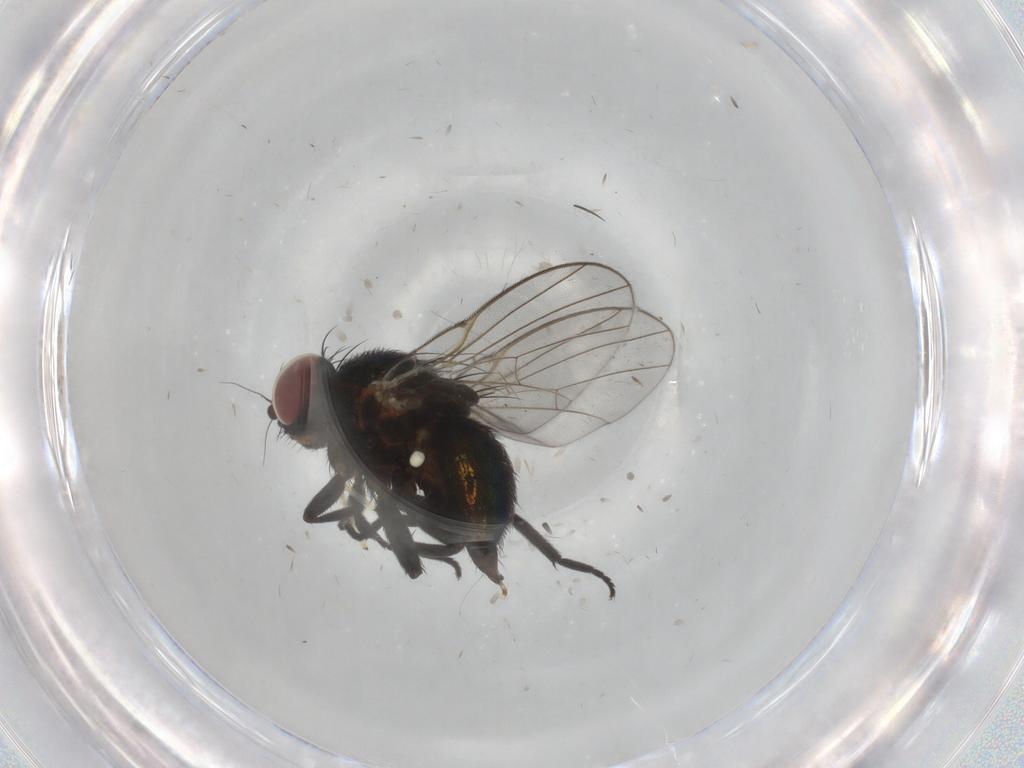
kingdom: Animalia
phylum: Arthropoda
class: Insecta
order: Diptera
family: Agromyzidae
